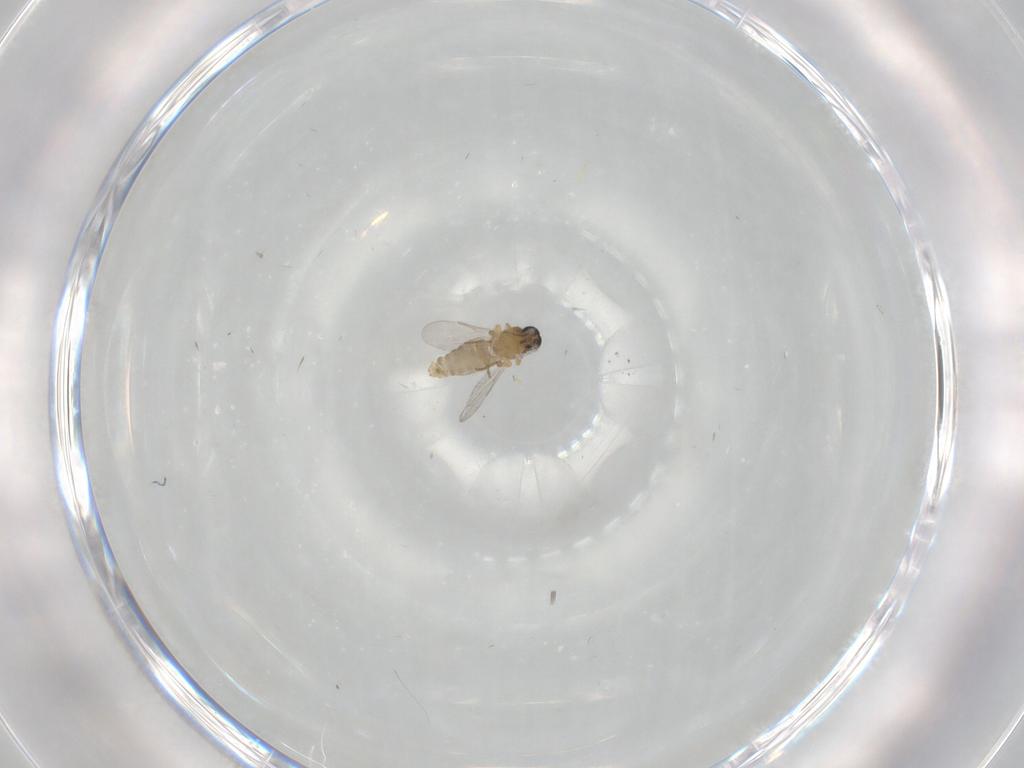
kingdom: Animalia
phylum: Arthropoda
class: Insecta
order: Diptera
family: Ceratopogonidae
